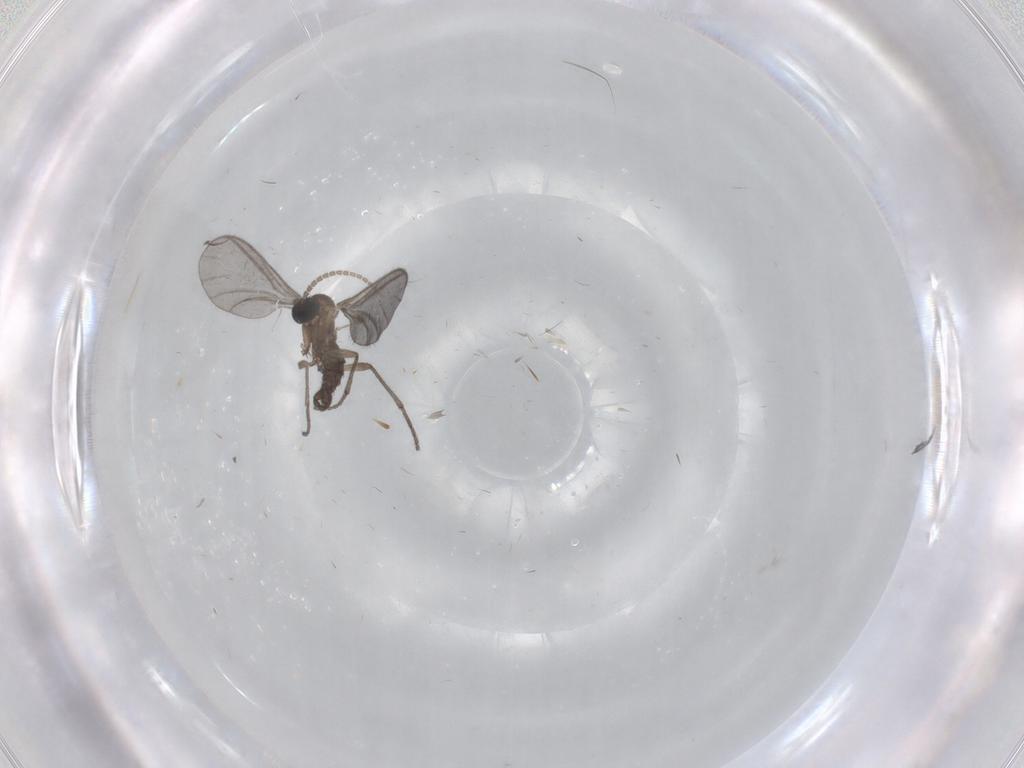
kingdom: Animalia
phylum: Arthropoda
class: Insecta
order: Diptera
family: Sciaridae
